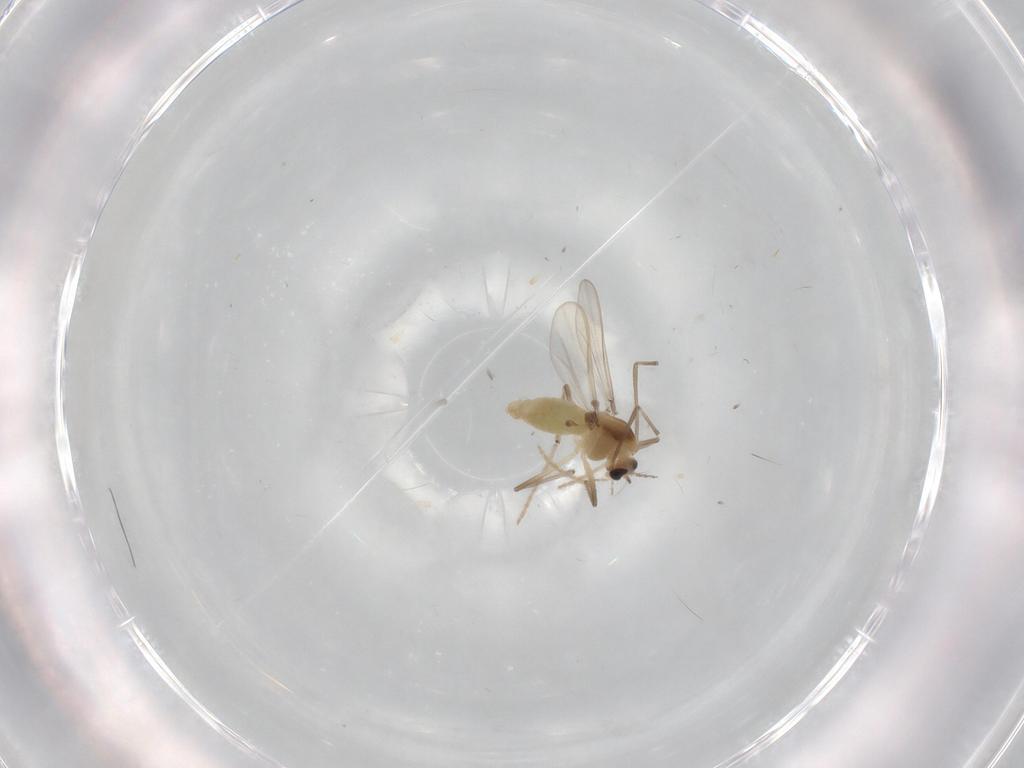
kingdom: Animalia
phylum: Arthropoda
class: Insecta
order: Diptera
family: Chironomidae
